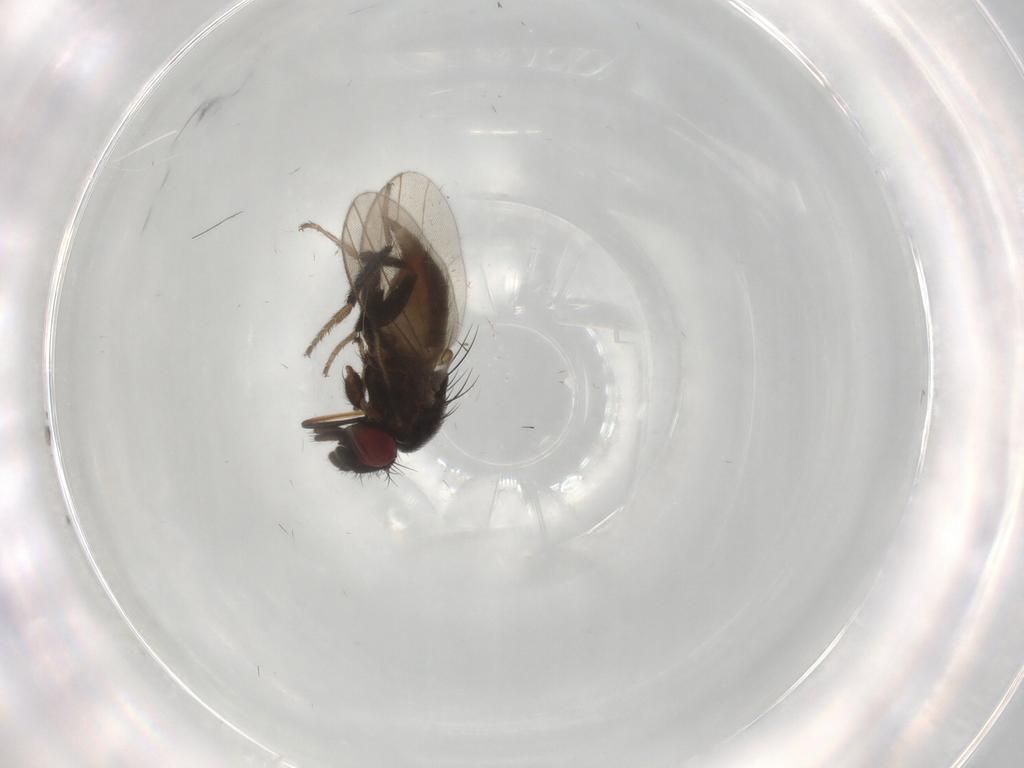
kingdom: Animalia
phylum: Arthropoda
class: Insecta
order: Diptera
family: Milichiidae
